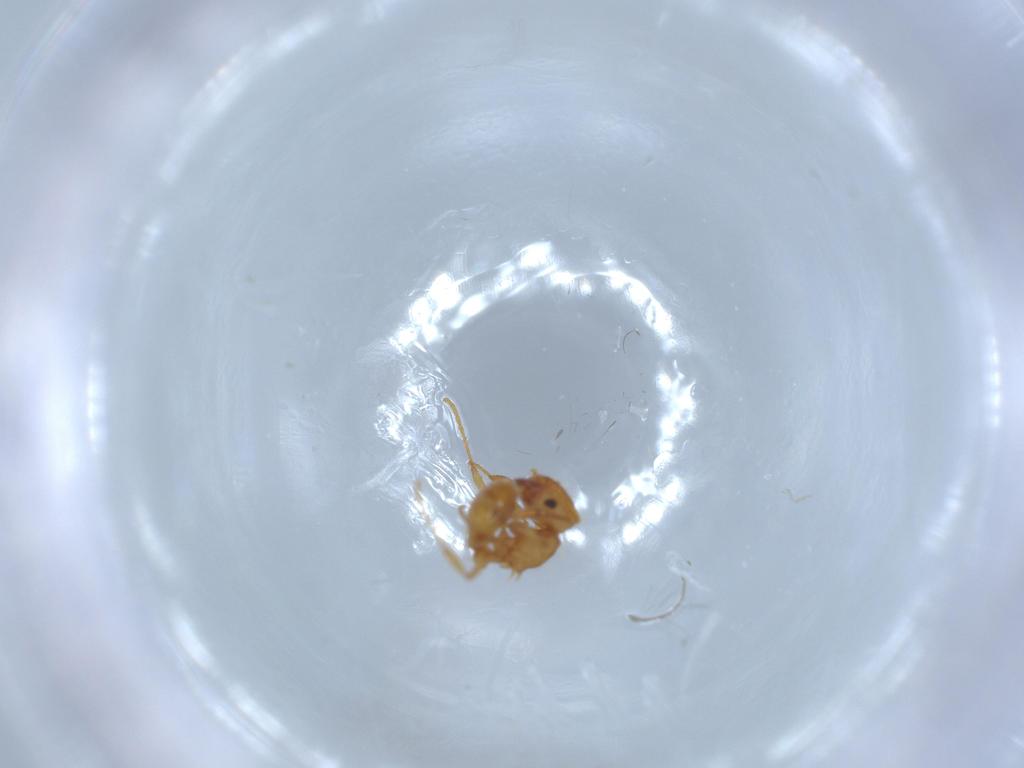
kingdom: Animalia
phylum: Arthropoda
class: Insecta
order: Hymenoptera
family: Formicidae
